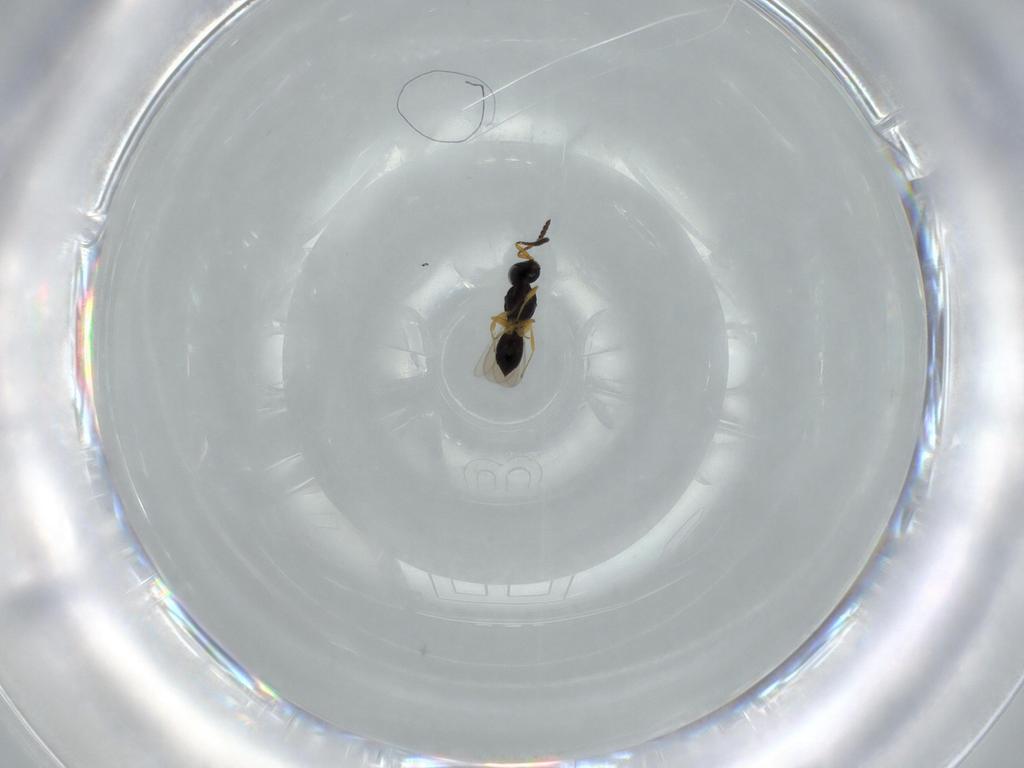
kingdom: Animalia
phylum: Arthropoda
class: Insecta
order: Hymenoptera
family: Scelionidae
